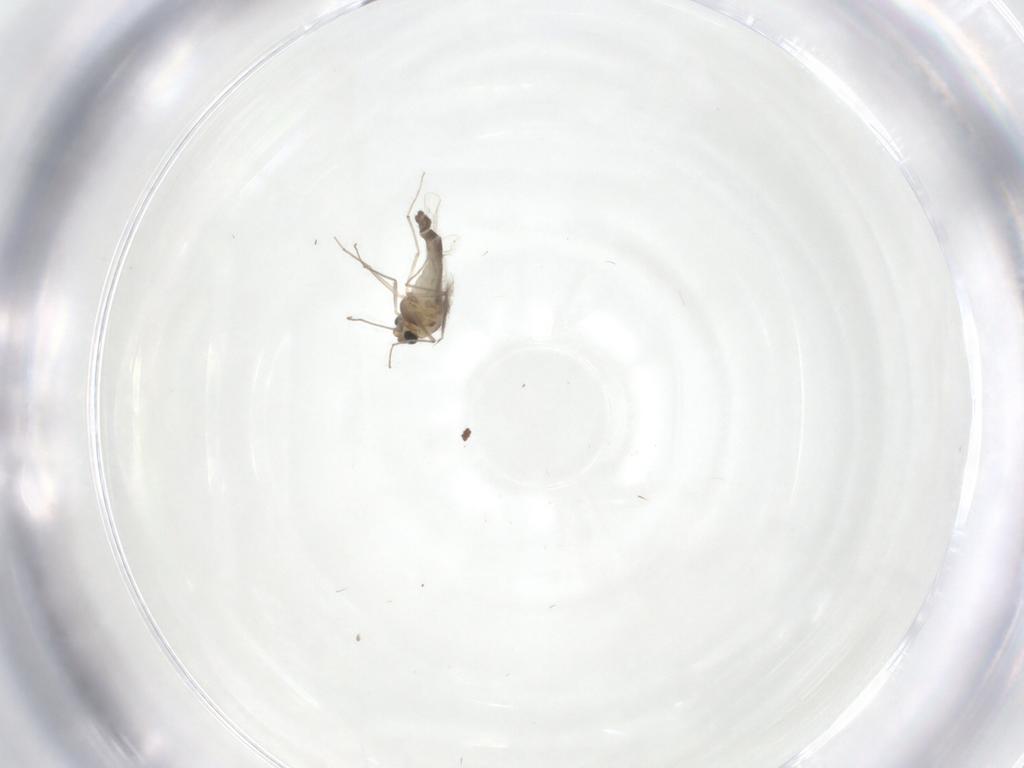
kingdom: Animalia
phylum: Arthropoda
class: Insecta
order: Diptera
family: Chironomidae
